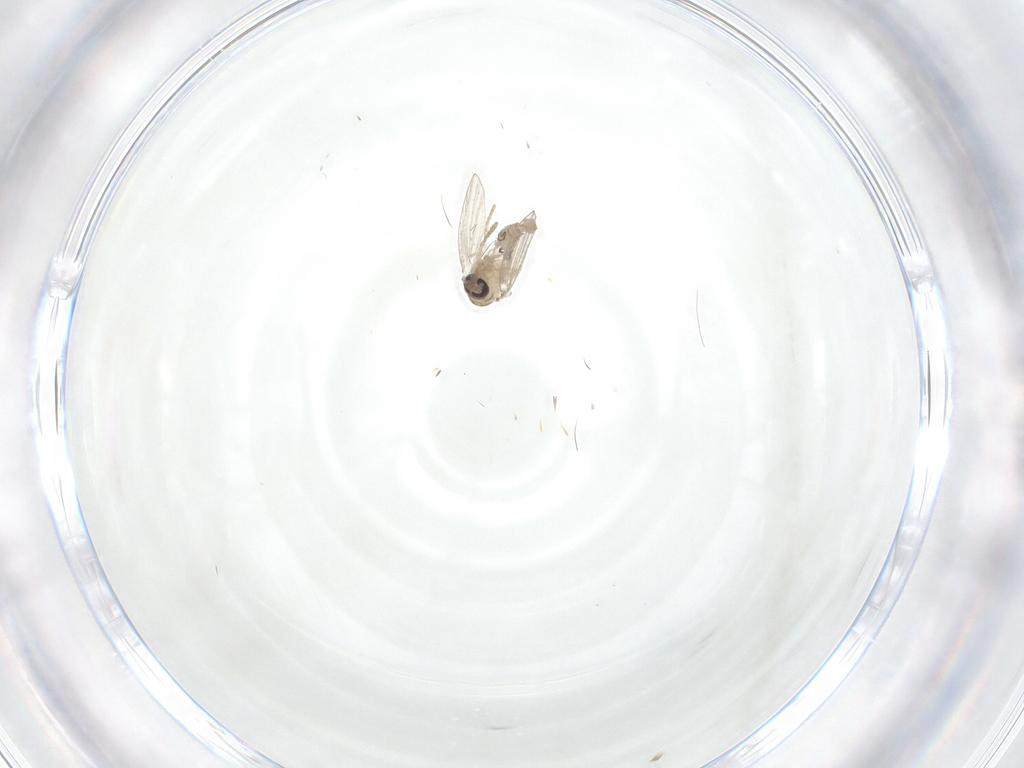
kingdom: Animalia
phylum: Arthropoda
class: Insecta
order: Diptera
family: Psychodidae
